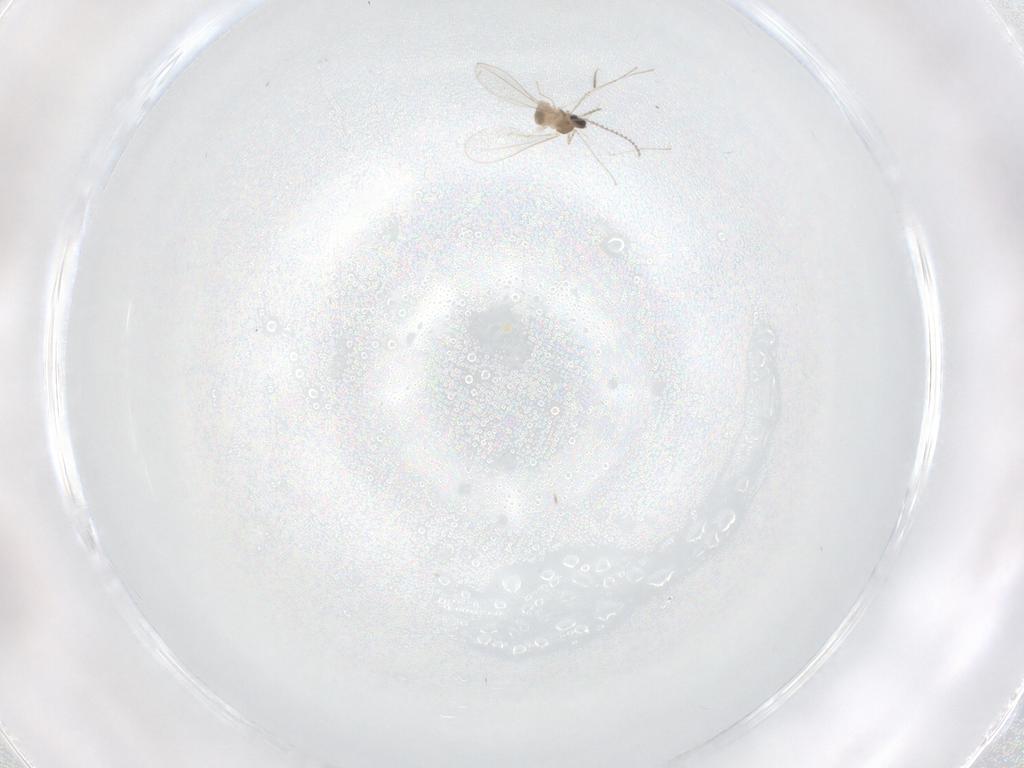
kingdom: Animalia
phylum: Arthropoda
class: Insecta
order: Diptera
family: Cecidomyiidae
